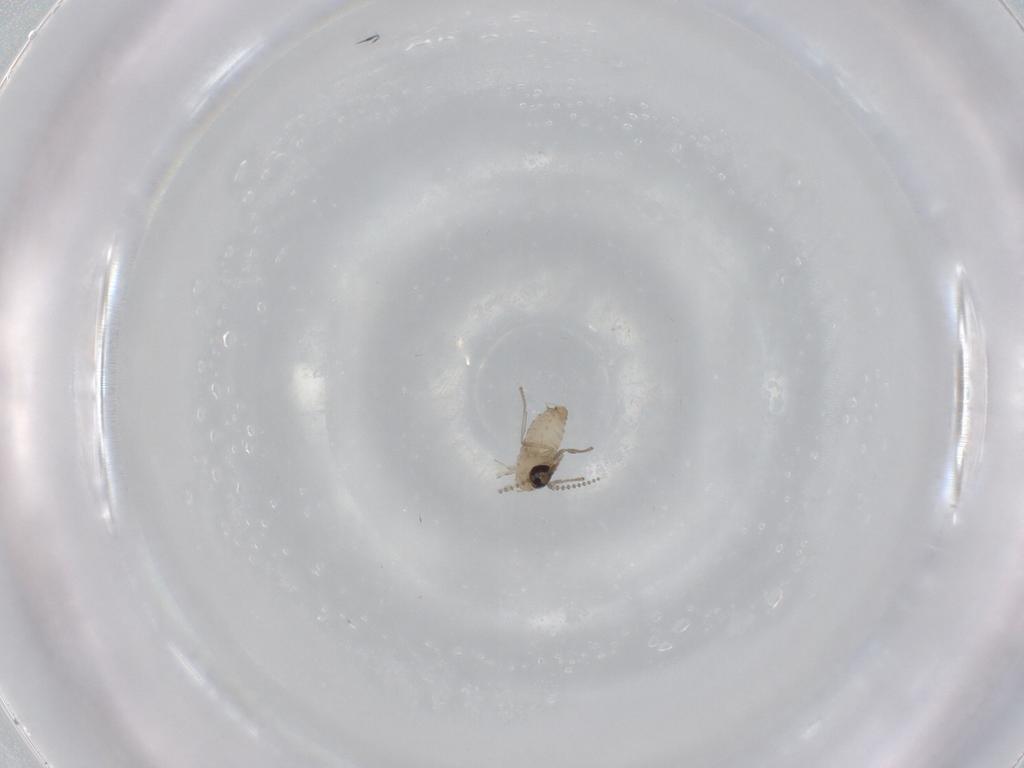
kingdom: Animalia
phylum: Arthropoda
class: Insecta
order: Diptera
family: Psychodidae
